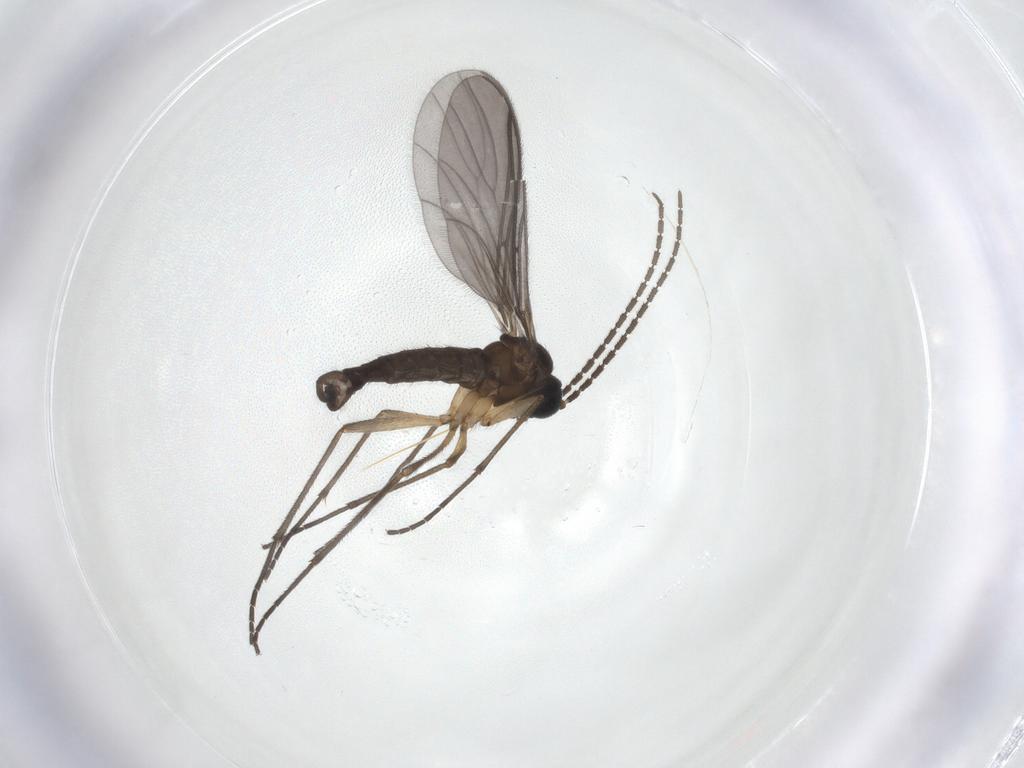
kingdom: Animalia
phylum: Arthropoda
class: Insecta
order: Diptera
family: Sciaridae
